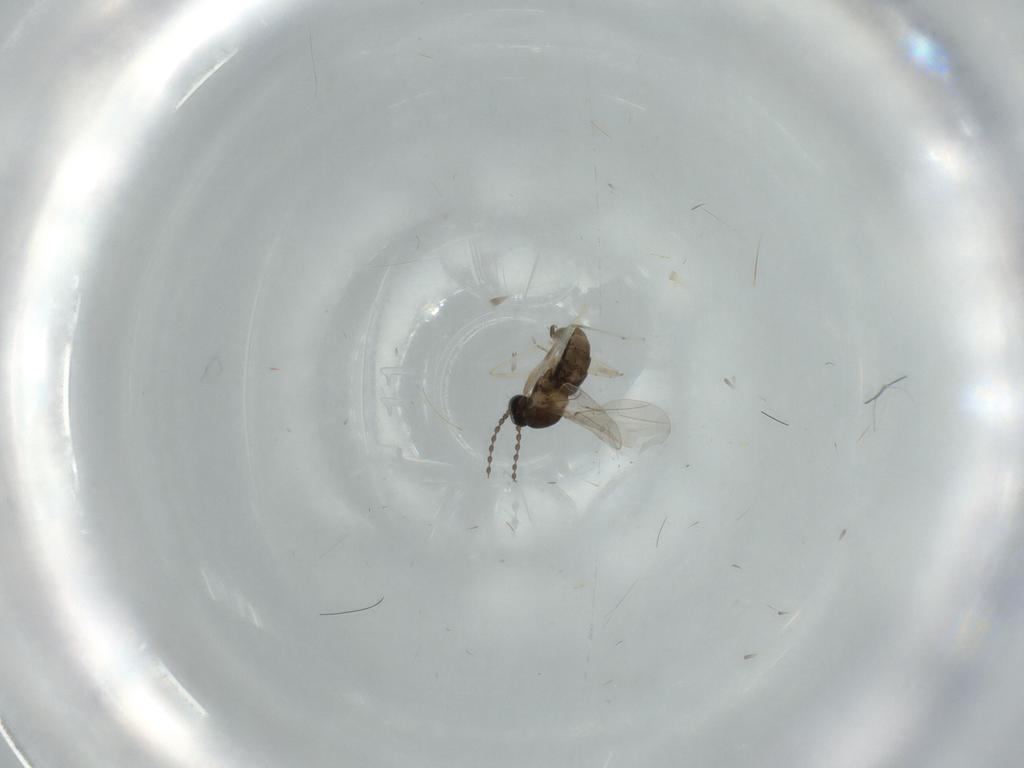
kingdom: Animalia
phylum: Arthropoda
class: Insecta
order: Diptera
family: Cecidomyiidae
